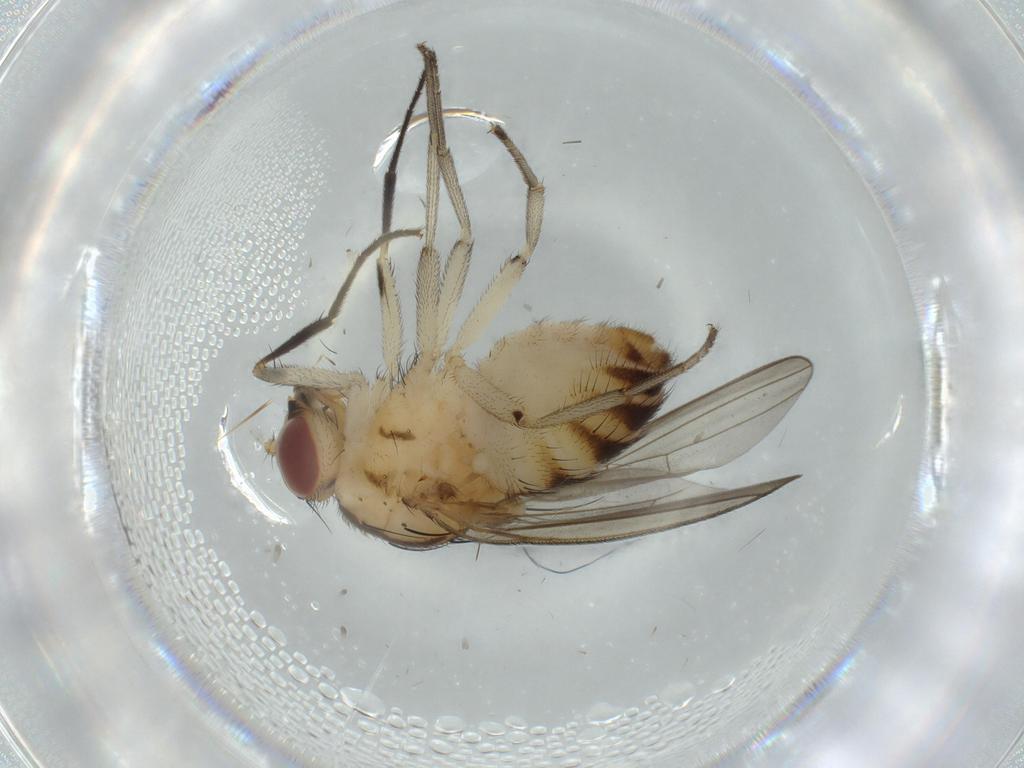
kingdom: Animalia
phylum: Arthropoda
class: Insecta
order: Diptera
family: Sciaridae
